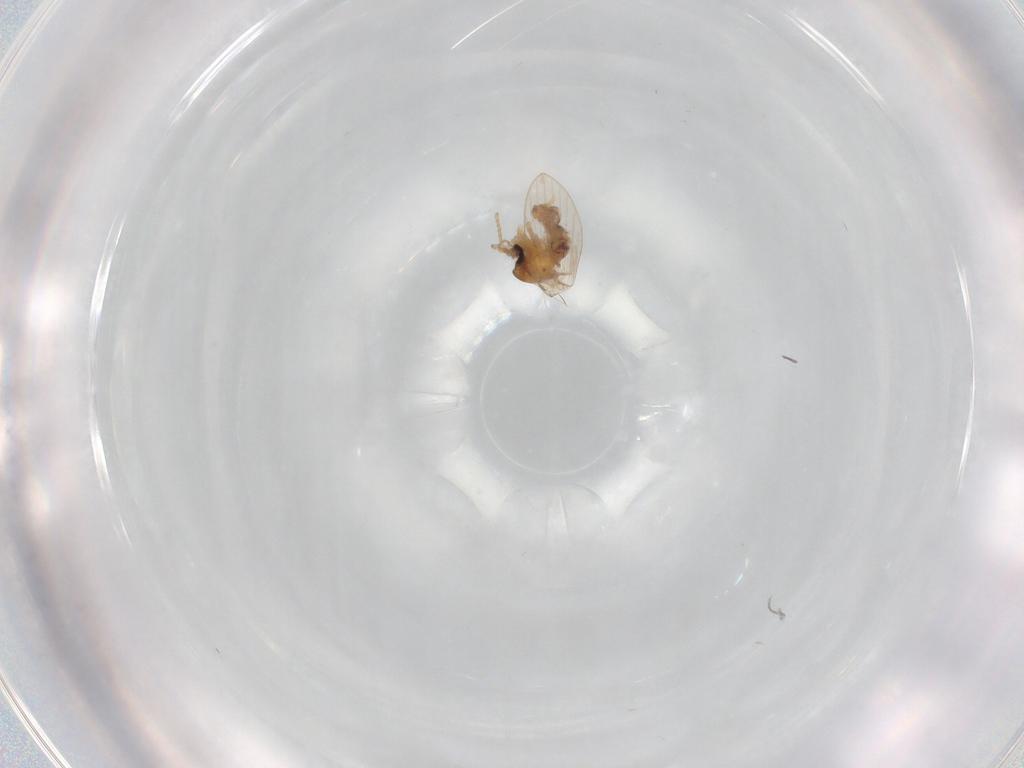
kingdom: Animalia
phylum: Arthropoda
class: Insecta
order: Diptera
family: Psychodidae
